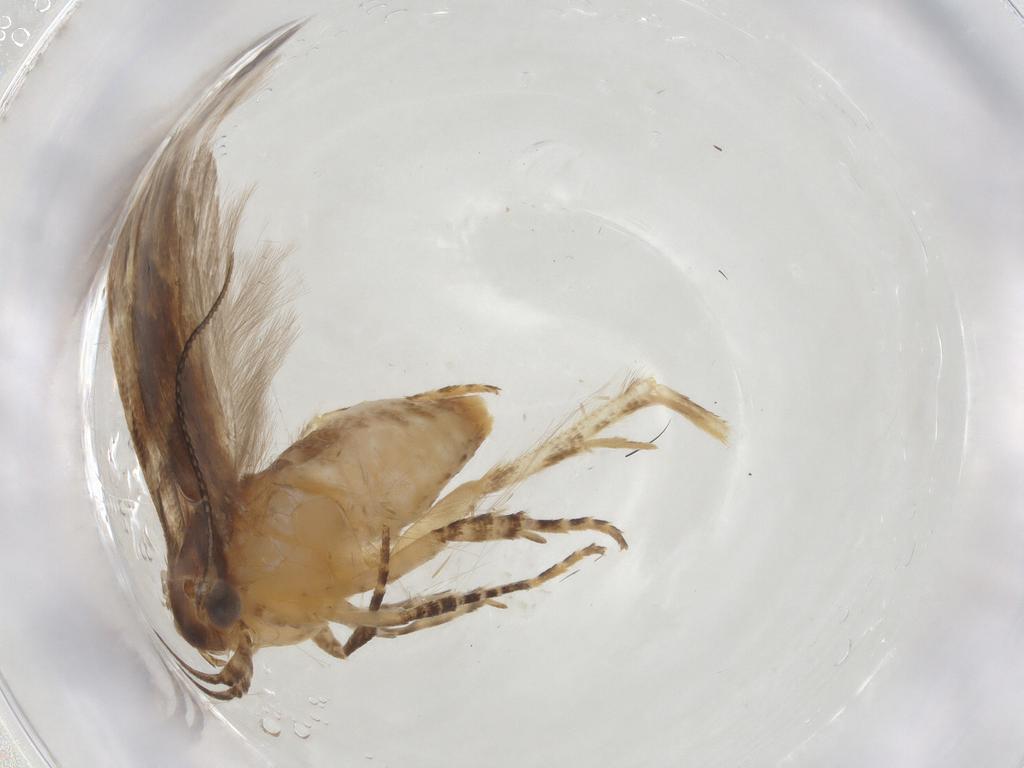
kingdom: Animalia
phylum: Arthropoda
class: Insecta
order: Lepidoptera
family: Gelechiidae
